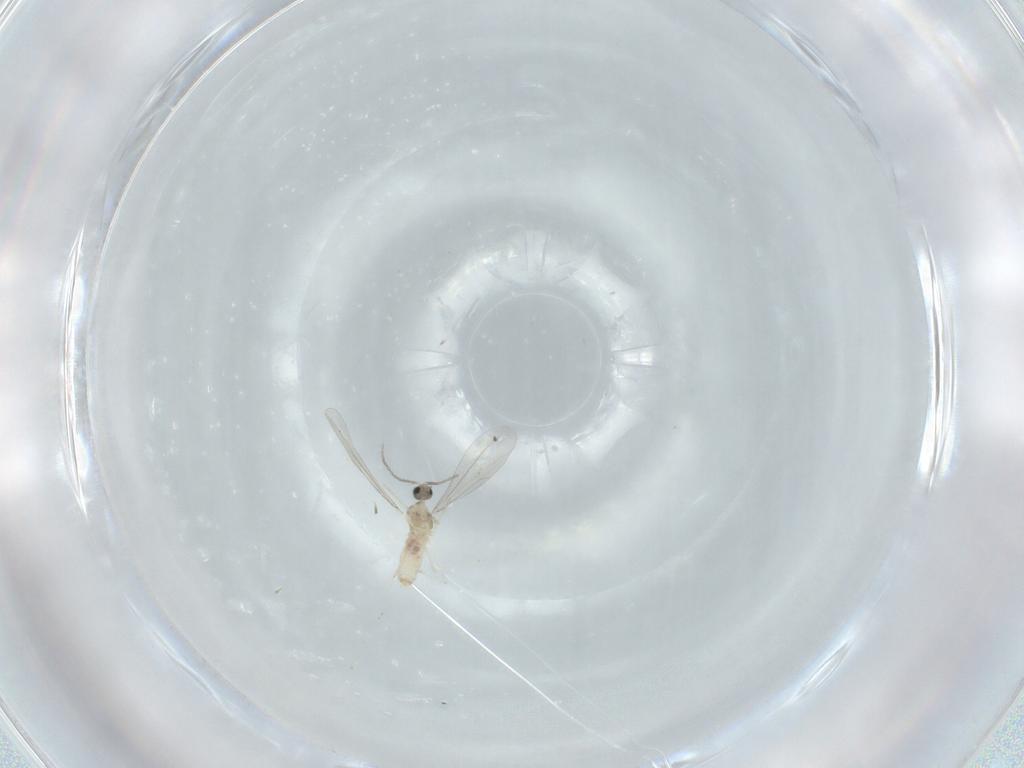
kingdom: Animalia
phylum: Arthropoda
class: Insecta
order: Diptera
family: Cecidomyiidae
